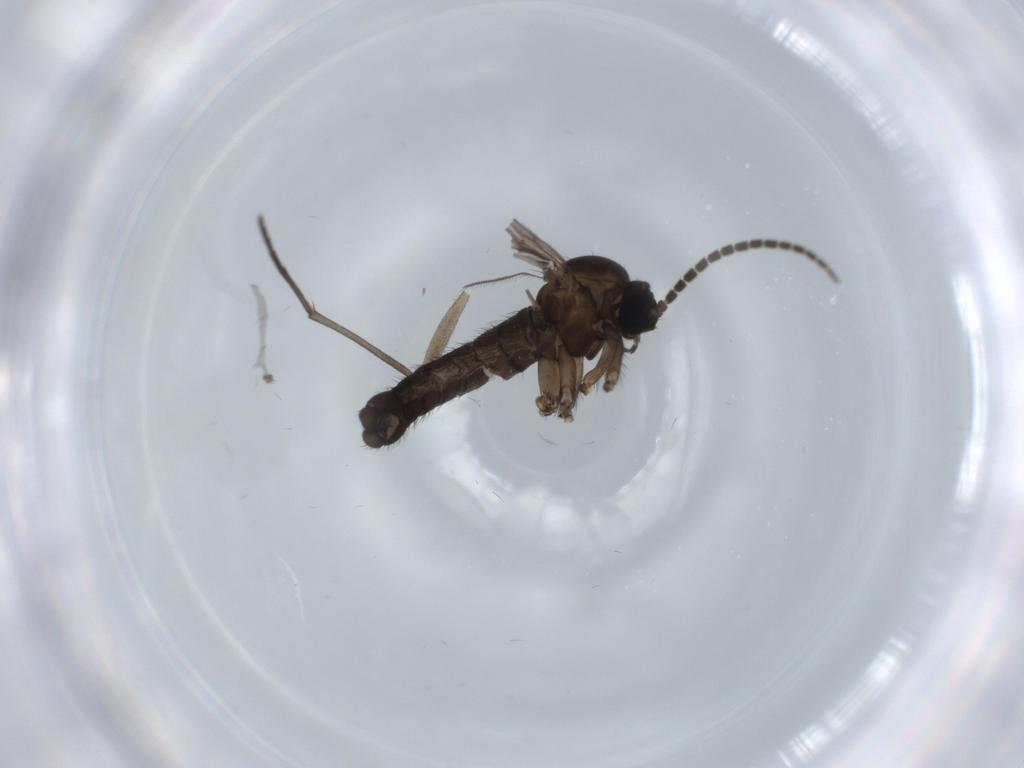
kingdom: Animalia
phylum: Arthropoda
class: Insecta
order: Diptera
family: Sciaridae
